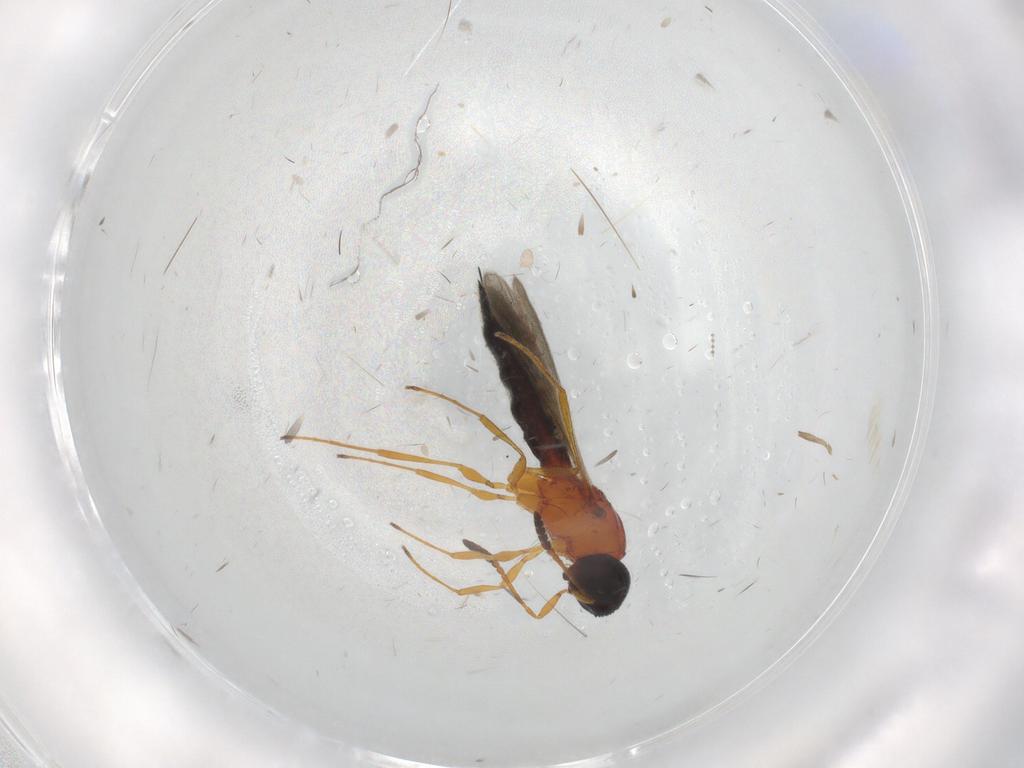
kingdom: Animalia
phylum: Arthropoda
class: Insecta
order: Hymenoptera
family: Scelionidae
